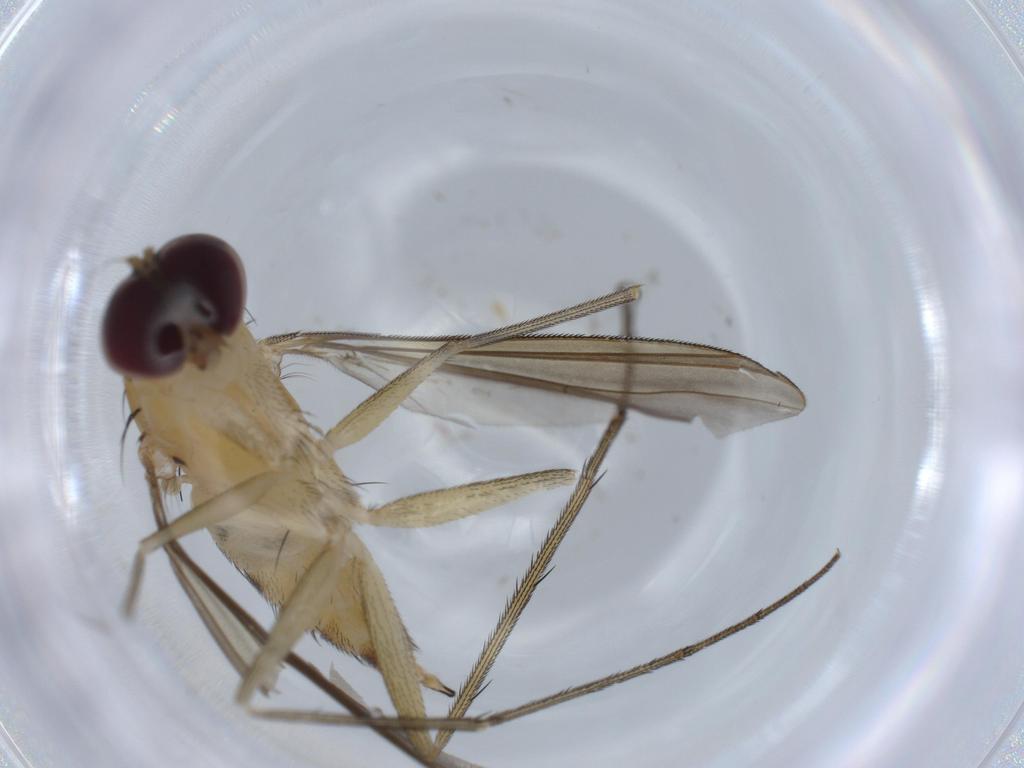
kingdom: Animalia
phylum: Arthropoda
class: Insecta
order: Diptera
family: Dolichopodidae
